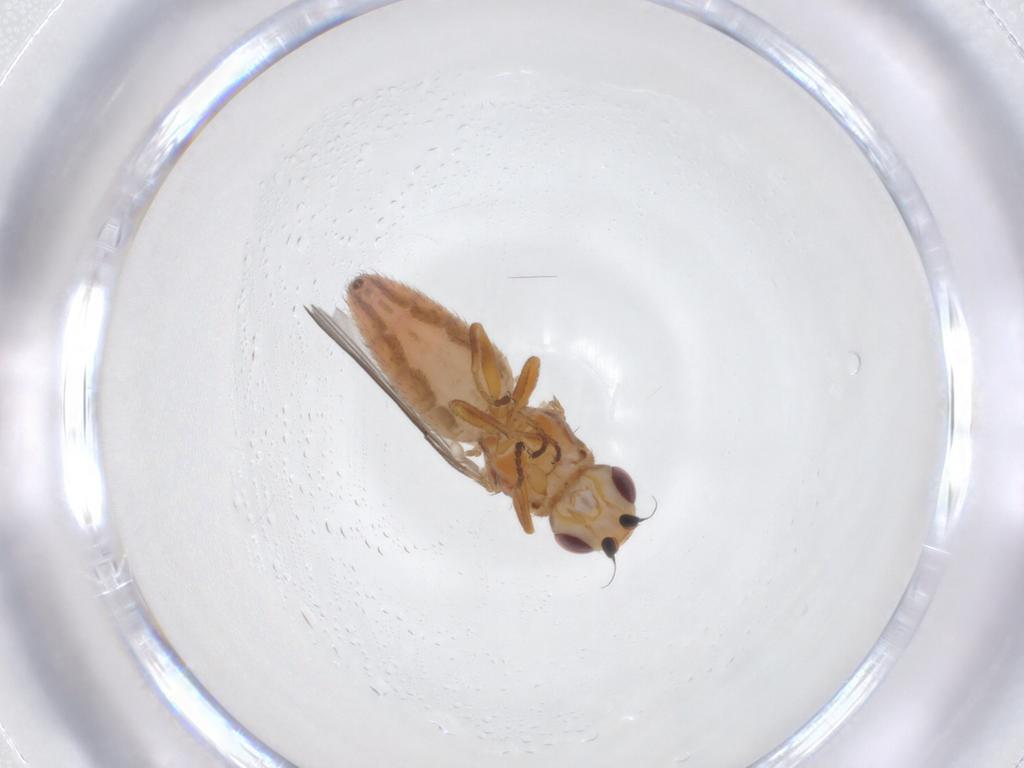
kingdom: Animalia
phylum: Arthropoda
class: Insecta
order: Diptera
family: Chloropidae
